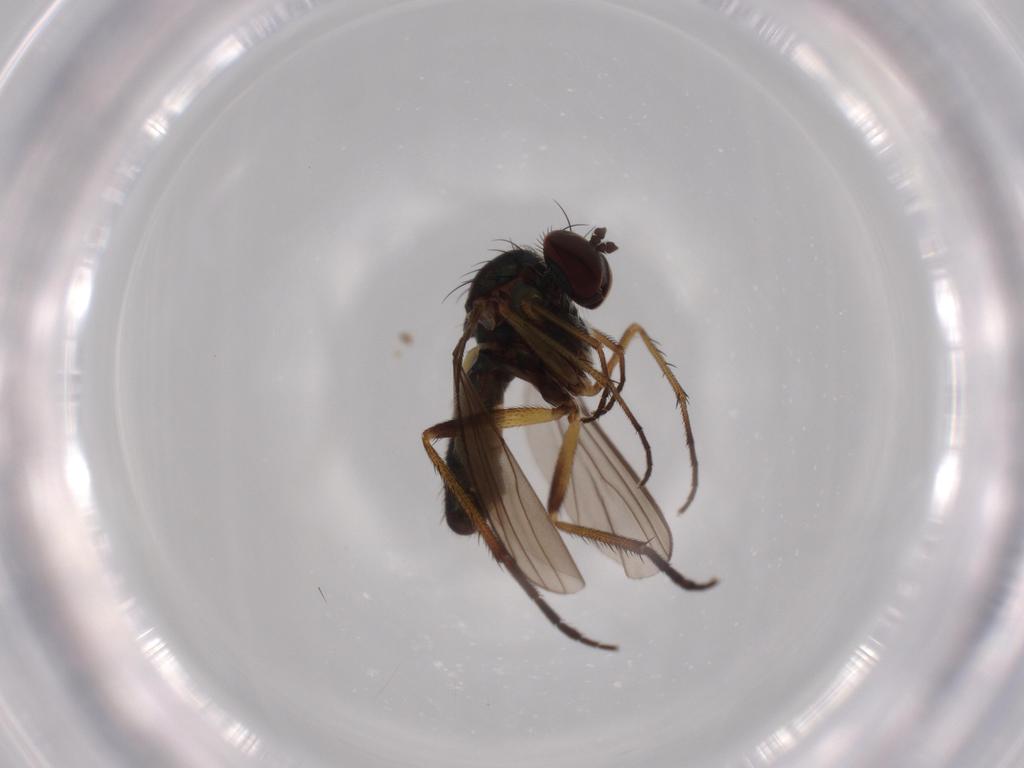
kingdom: Animalia
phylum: Arthropoda
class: Insecta
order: Diptera
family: Dolichopodidae
